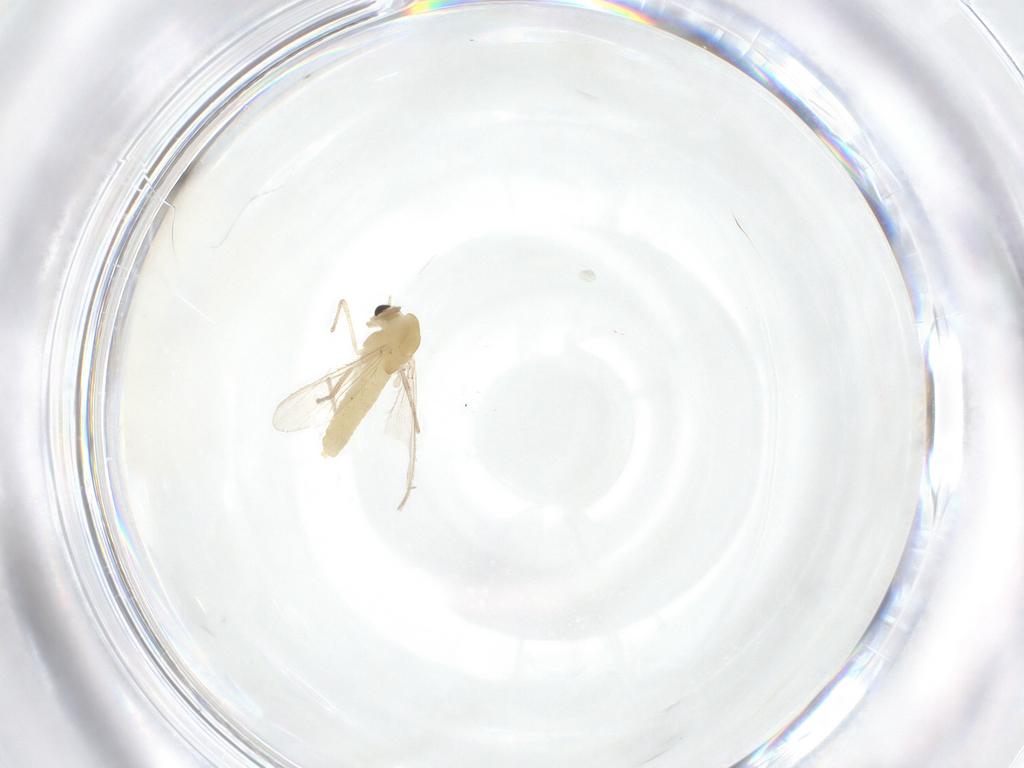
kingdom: Animalia
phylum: Arthropoda
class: Insecta
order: Diptera
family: Chironomidae
